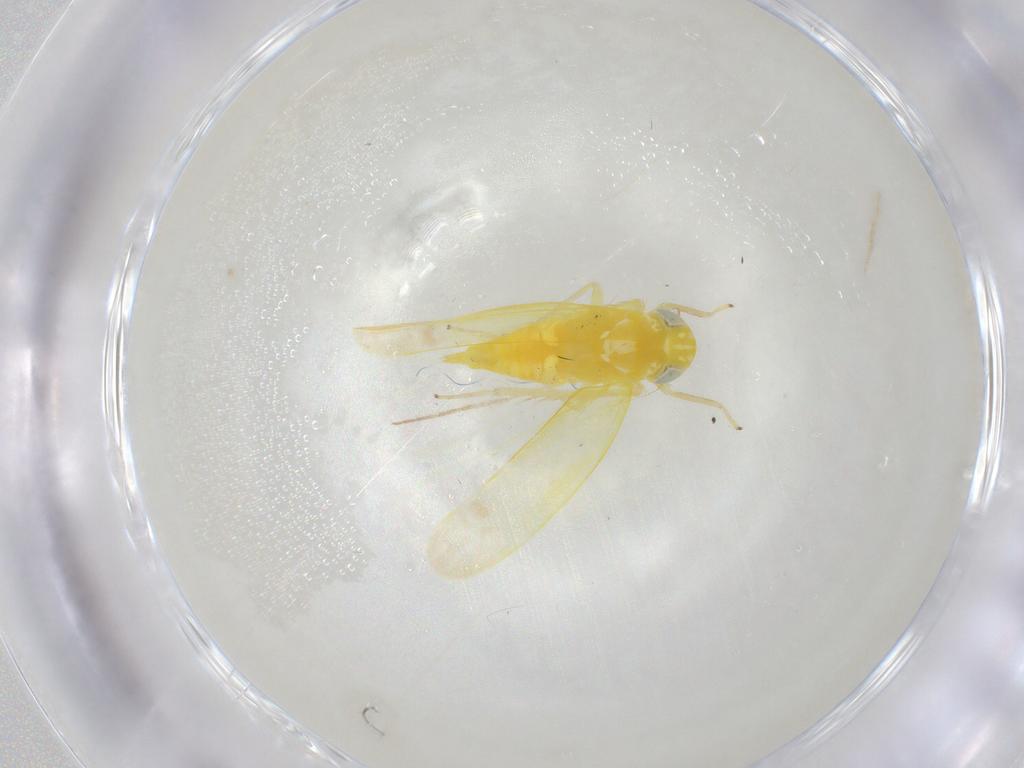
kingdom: Animalia
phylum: Arthropoda
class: Insecta
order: Hemiptera
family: Cicadellidae
